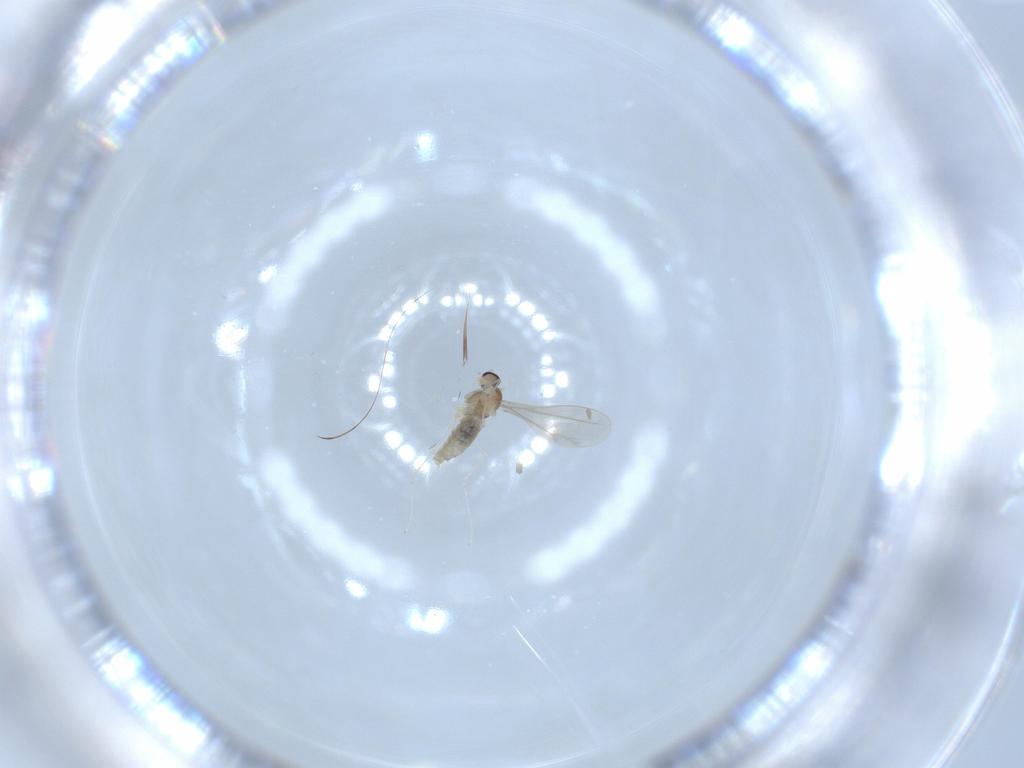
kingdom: Animalia
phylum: Arthropoda
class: Insecta
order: Diptera
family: Cecidomyiidae
